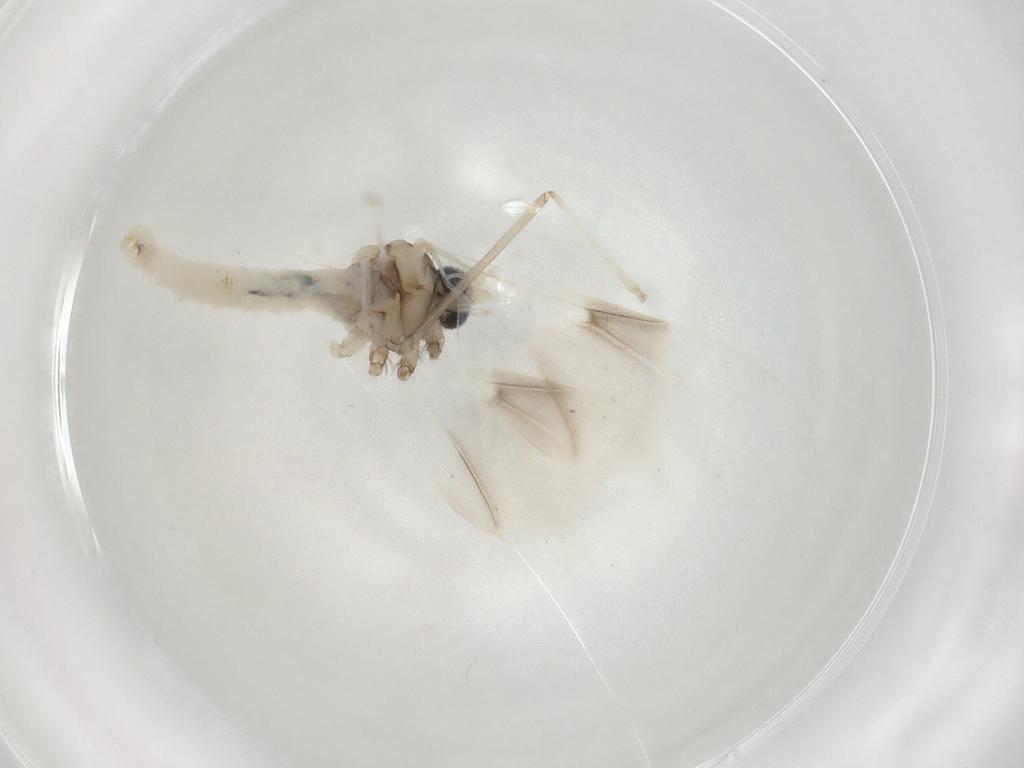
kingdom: Animalia
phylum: Arthropoda
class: Insecta
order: Diptera
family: Cecidomyiidae
